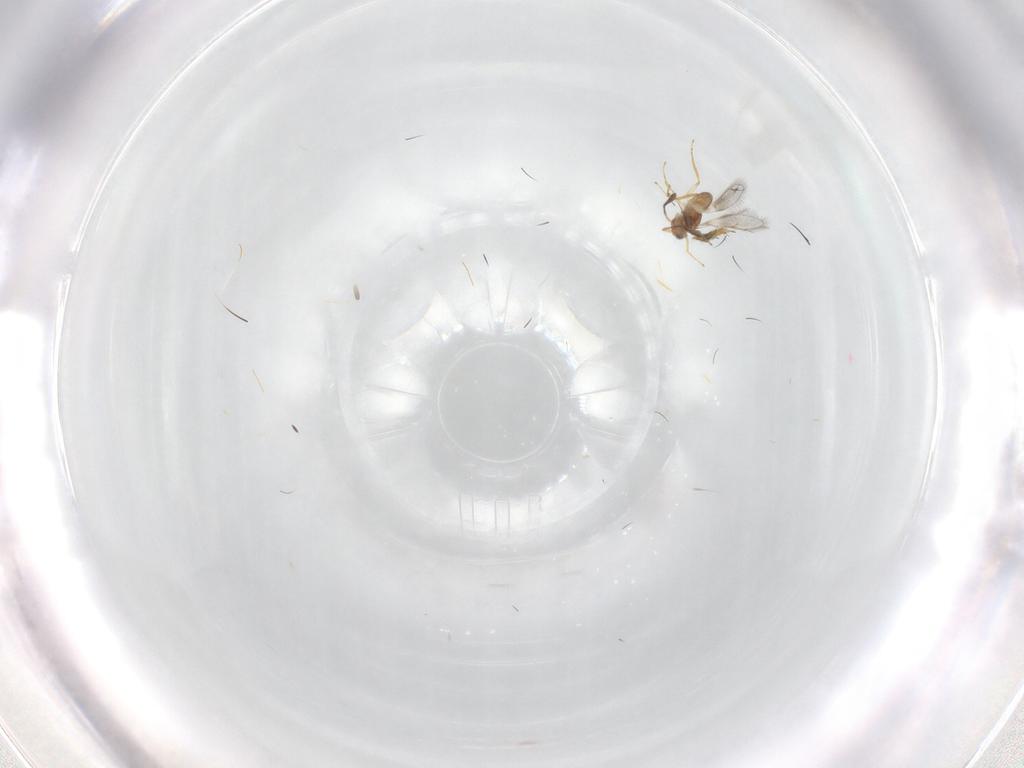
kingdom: Animalia
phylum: Arthropoda
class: Insecta
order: Hymenoptera
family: Mymaridae
